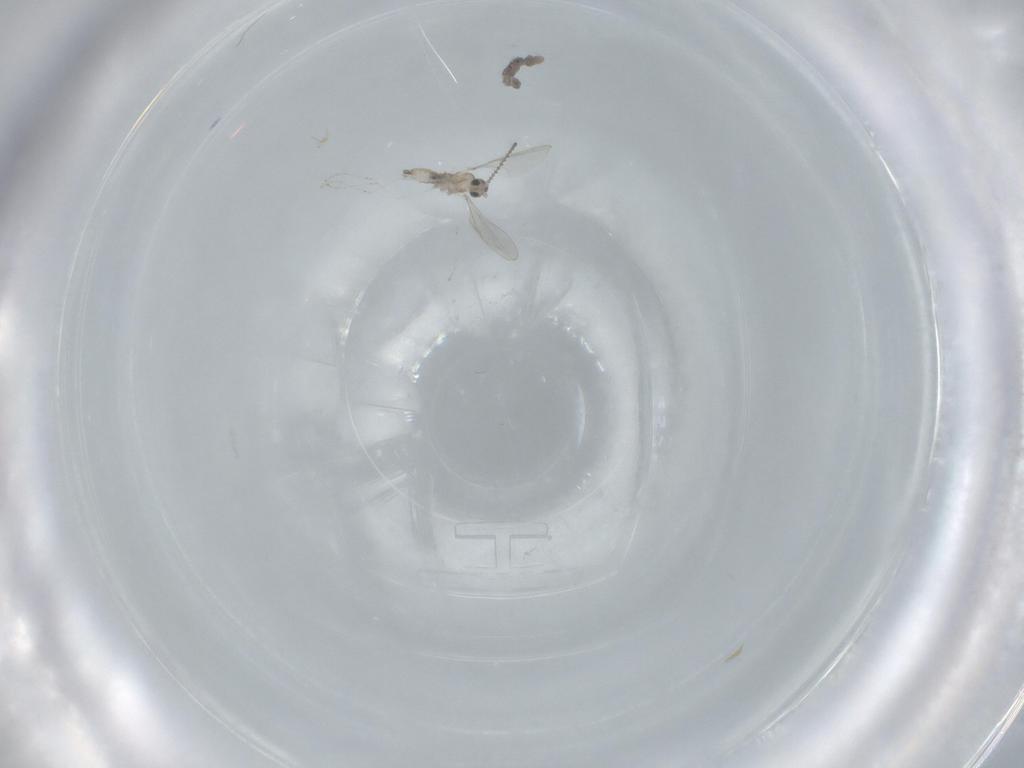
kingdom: Animalia
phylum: Arthropoda
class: Insecta
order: Diptera
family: Cecidomyiidae
